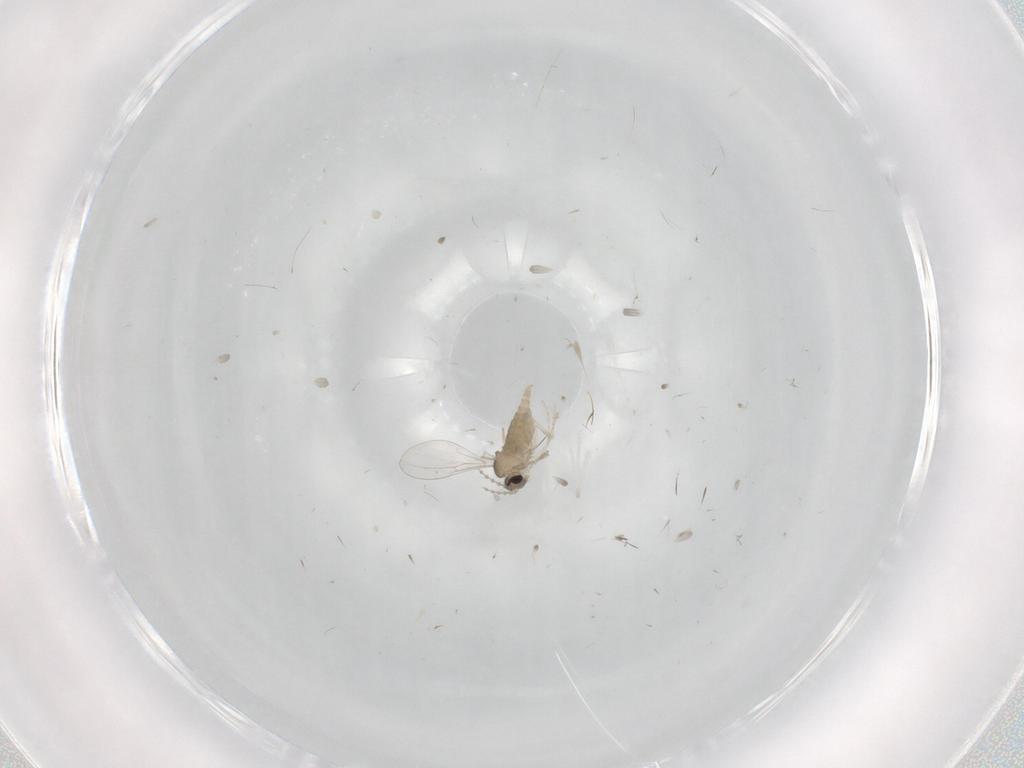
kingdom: Animalia
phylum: Arthropoda
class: Insecta
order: Diptera
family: Cecidomyiidae
